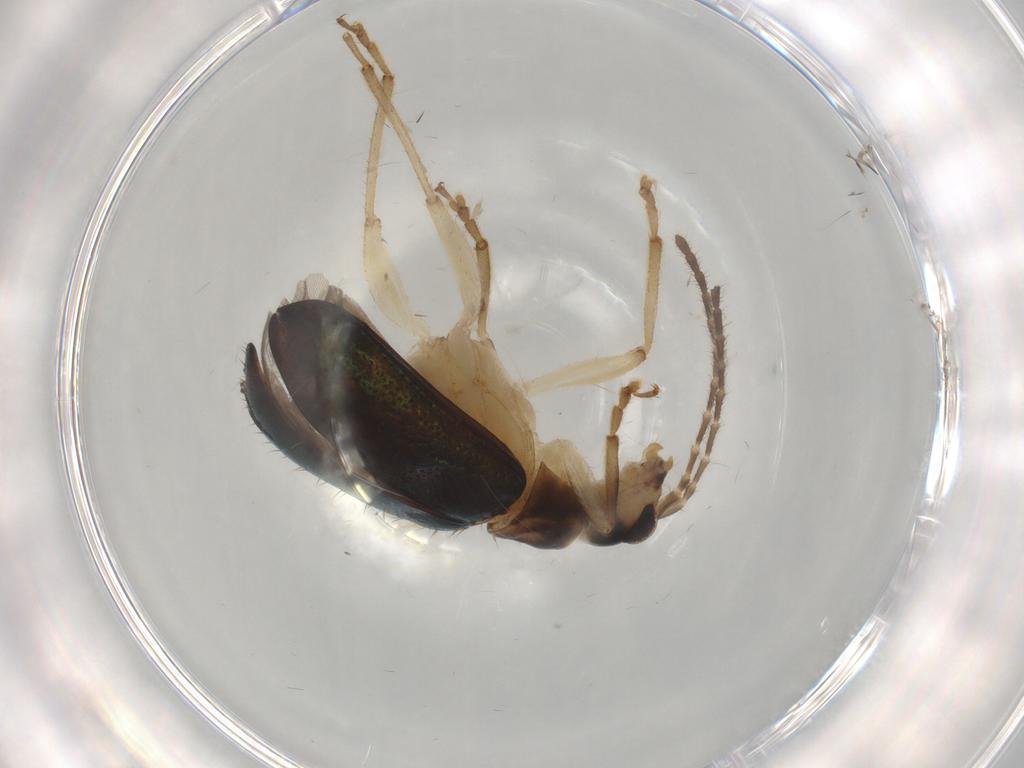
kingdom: Animalia
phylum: Arthropoda
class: Insecta
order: Coleoptera
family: Chrysomelidae
